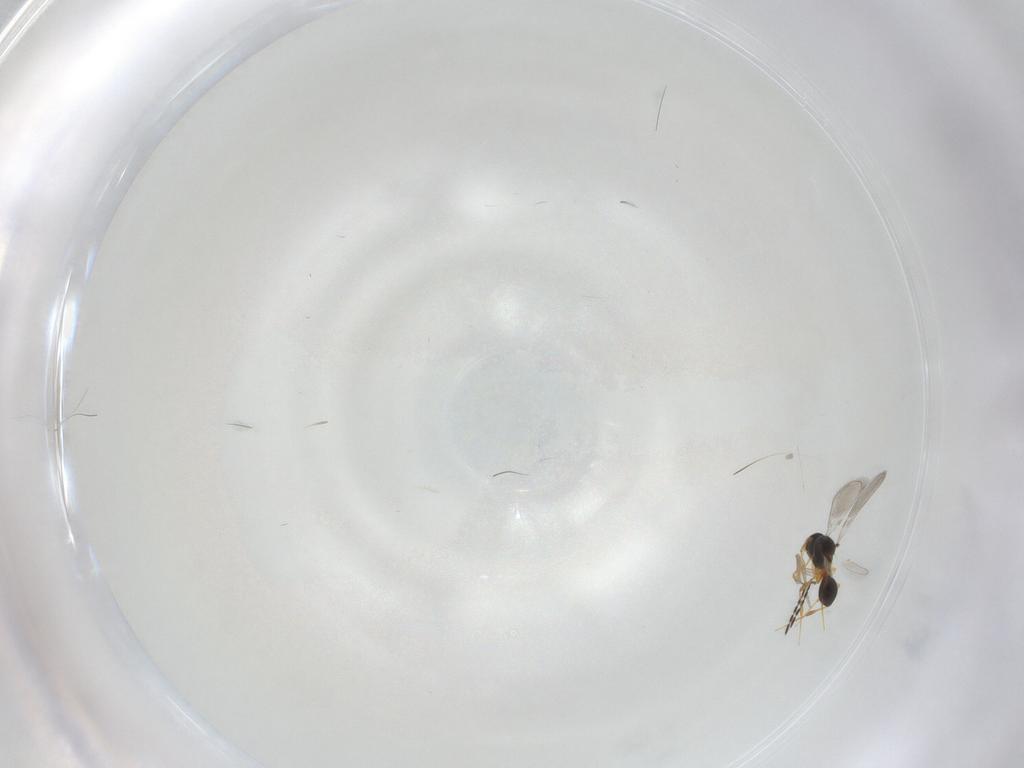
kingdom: Animalia
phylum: Arthropoda
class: Insecta
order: Hymenoptera
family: Platygastridae
